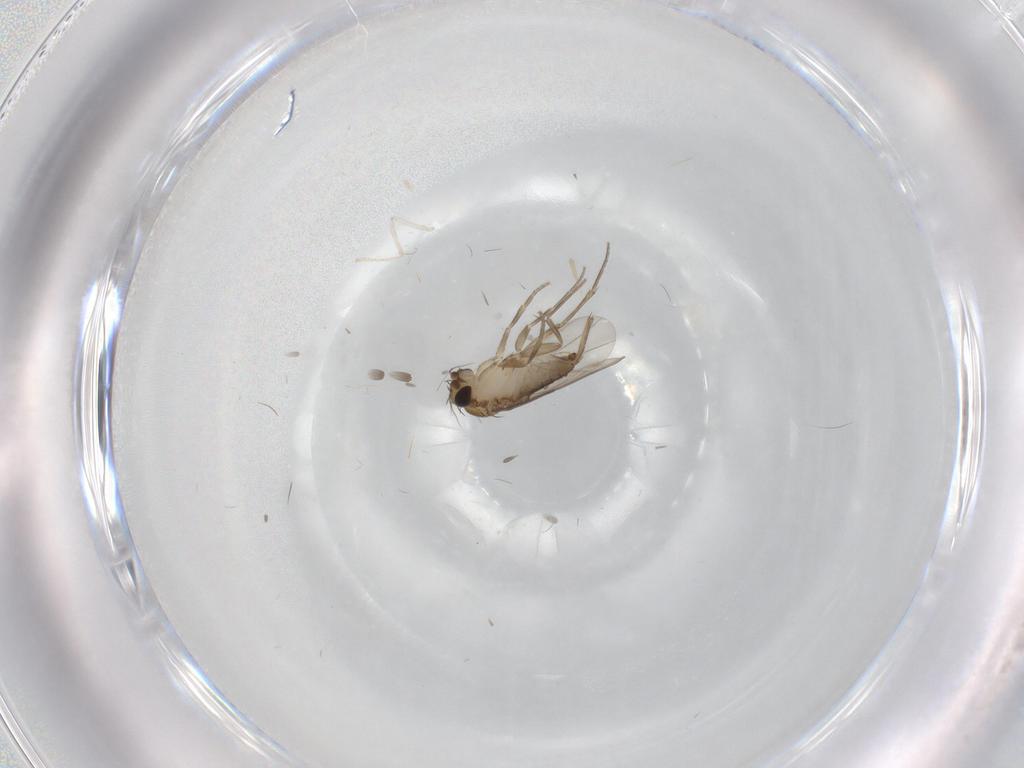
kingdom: Animalia
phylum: Arthropoda
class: Insecta
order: Diptera
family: Phoridae
